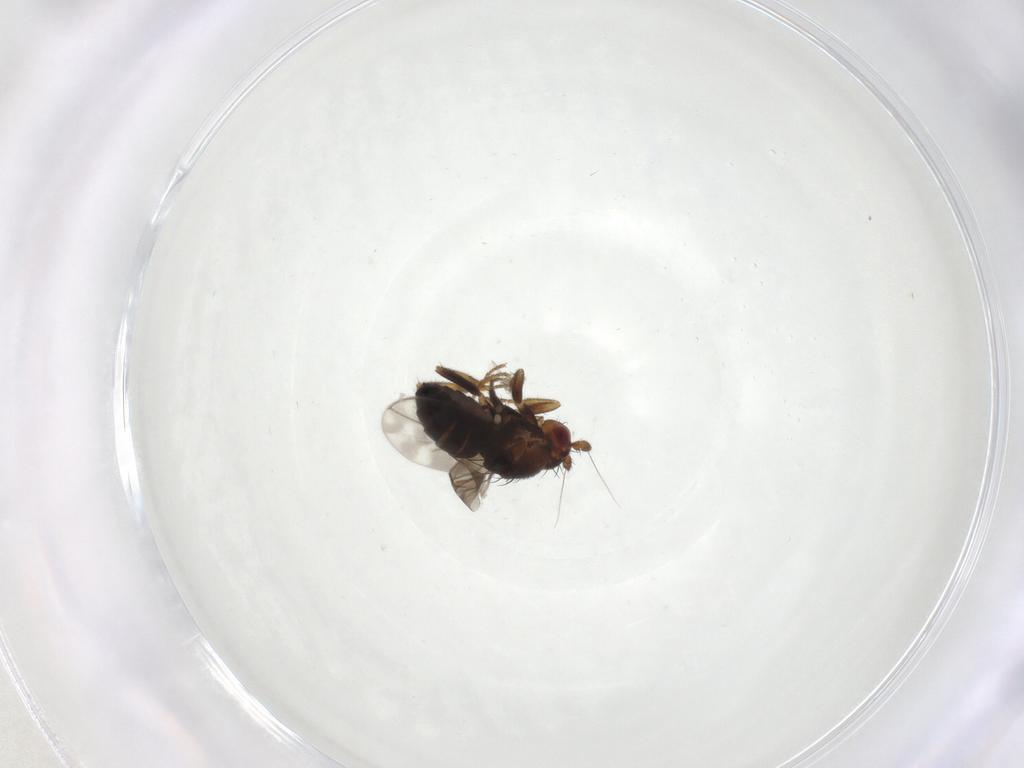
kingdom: Animalia
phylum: Arthropoda
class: Insecta
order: Diptera
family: Sphaeroceridae
